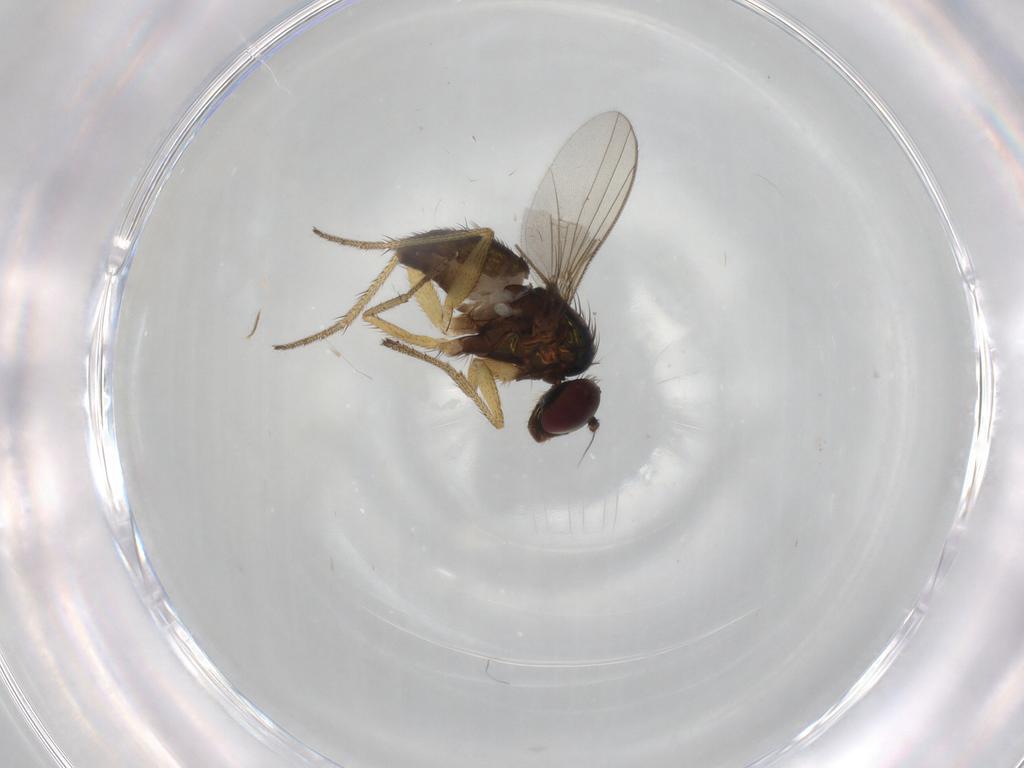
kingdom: Animalia
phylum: Arthropoda
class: Insecta
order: Diptera
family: Dolichopodidae
